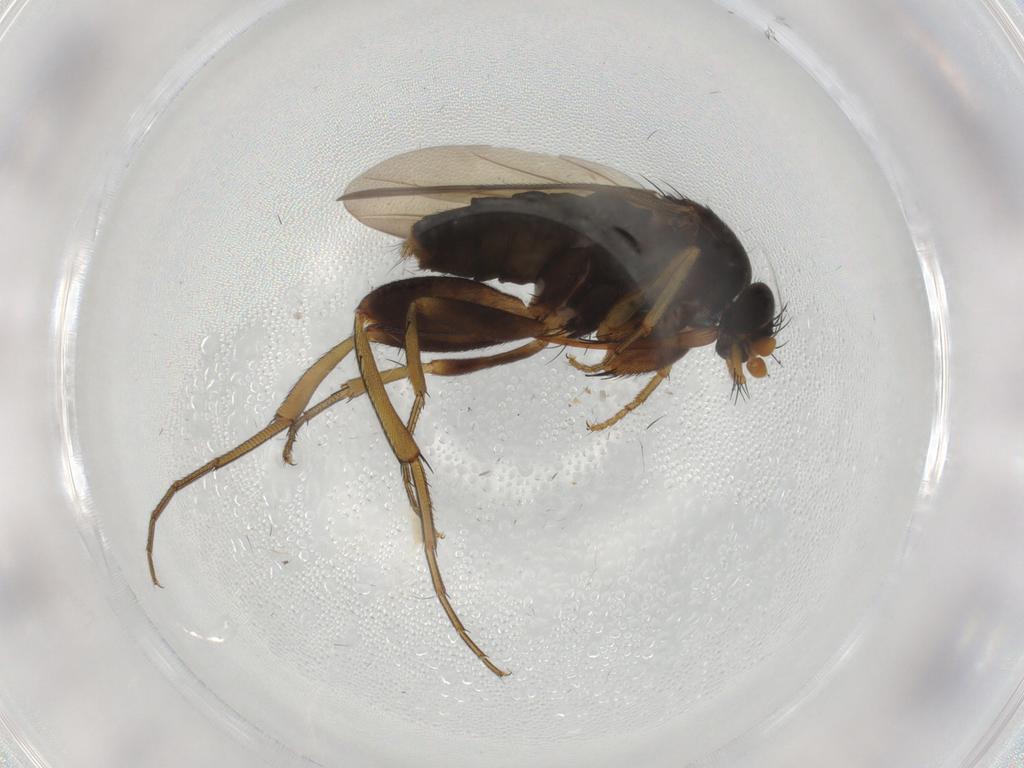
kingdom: Animalia
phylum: Arthropoda
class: Insecta
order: Diptera
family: Phoridae
